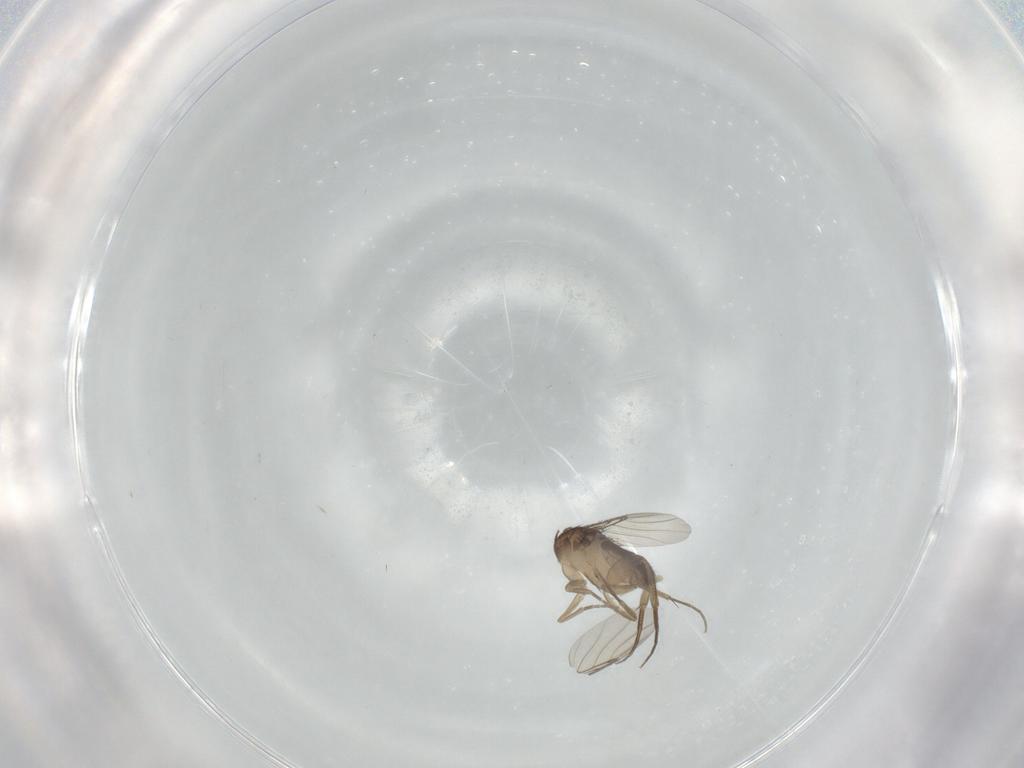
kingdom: Animalia
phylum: Arthropoda
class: Insecta
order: Diptera
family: Phoridae
